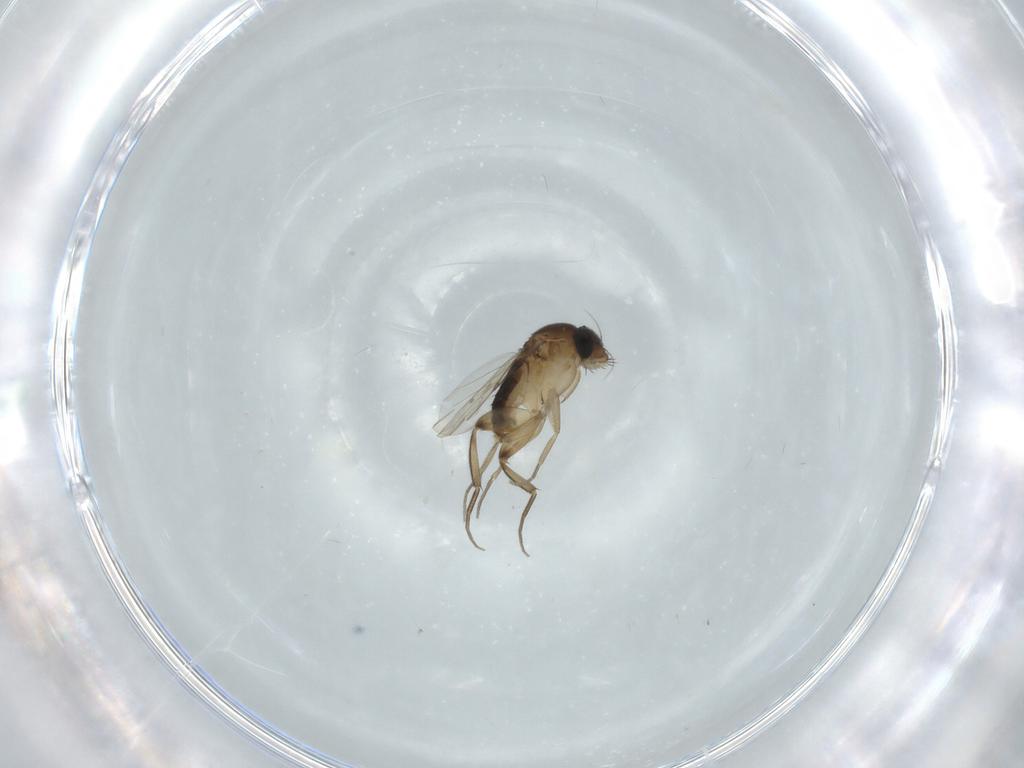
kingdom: Animalia
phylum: Arthropoda
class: Insecta
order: Diptera
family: Phoridae
